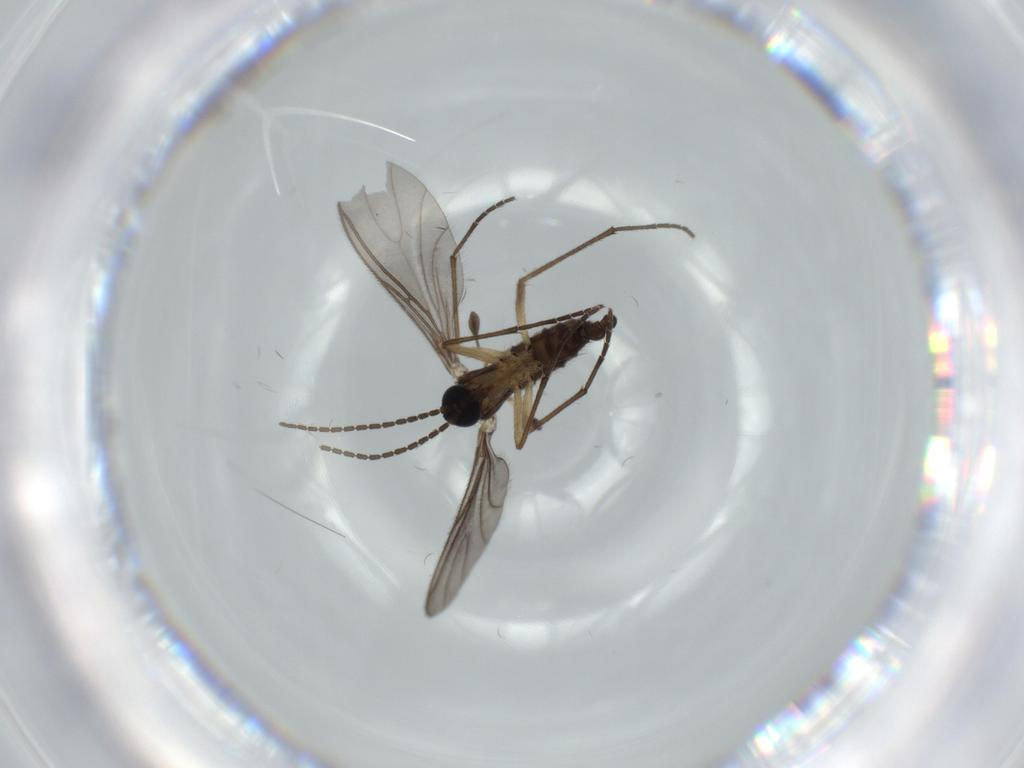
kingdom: Animalia
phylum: Arthropoda
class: Insecta
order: Diptera
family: Sciaridae
